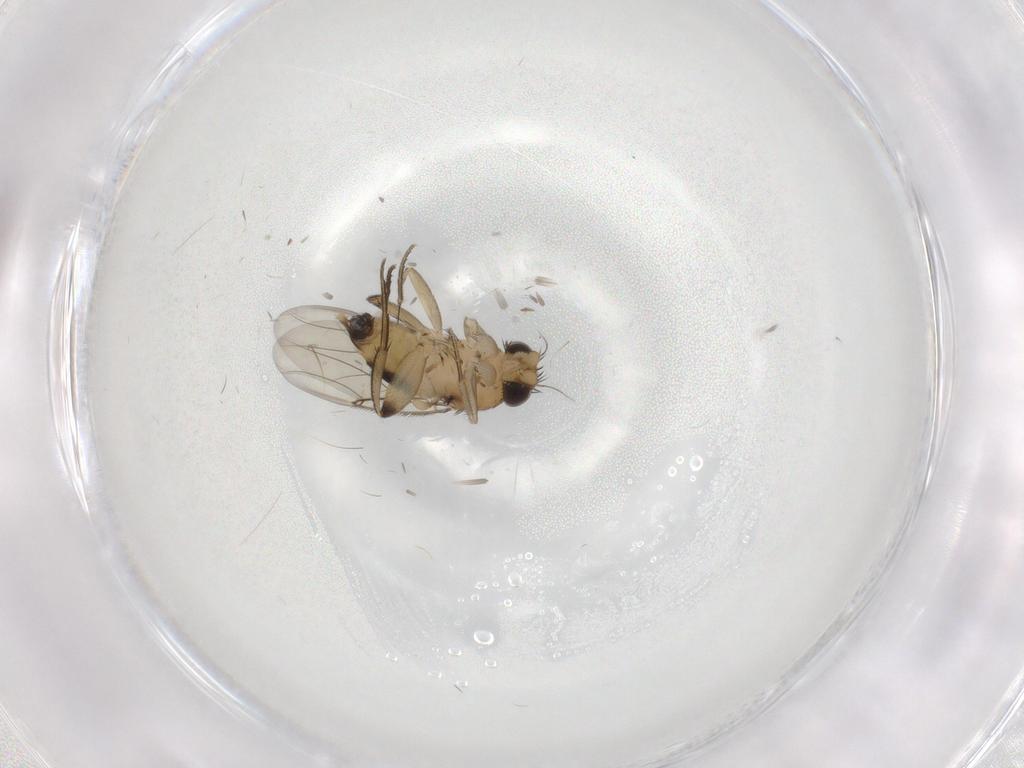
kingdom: Animalia
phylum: Arthropoda
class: Insecta
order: Diptera
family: Phoridae
